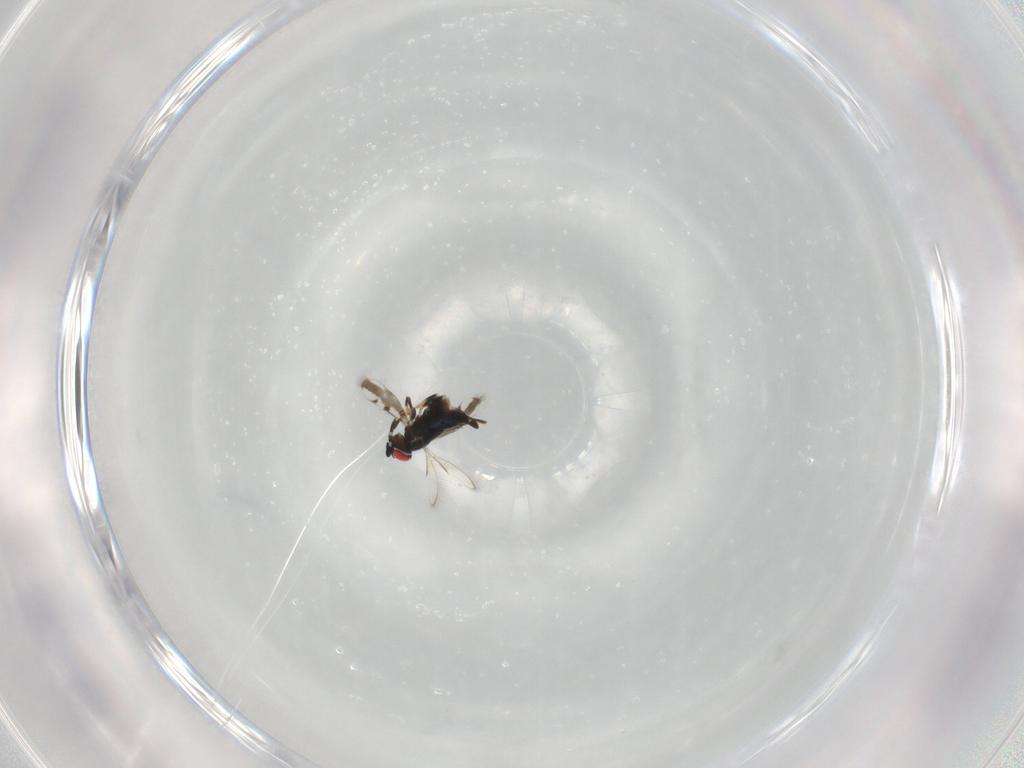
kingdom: Animalia
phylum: Arthropoda
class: Insecta
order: Hymenoptera
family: Azotidae
